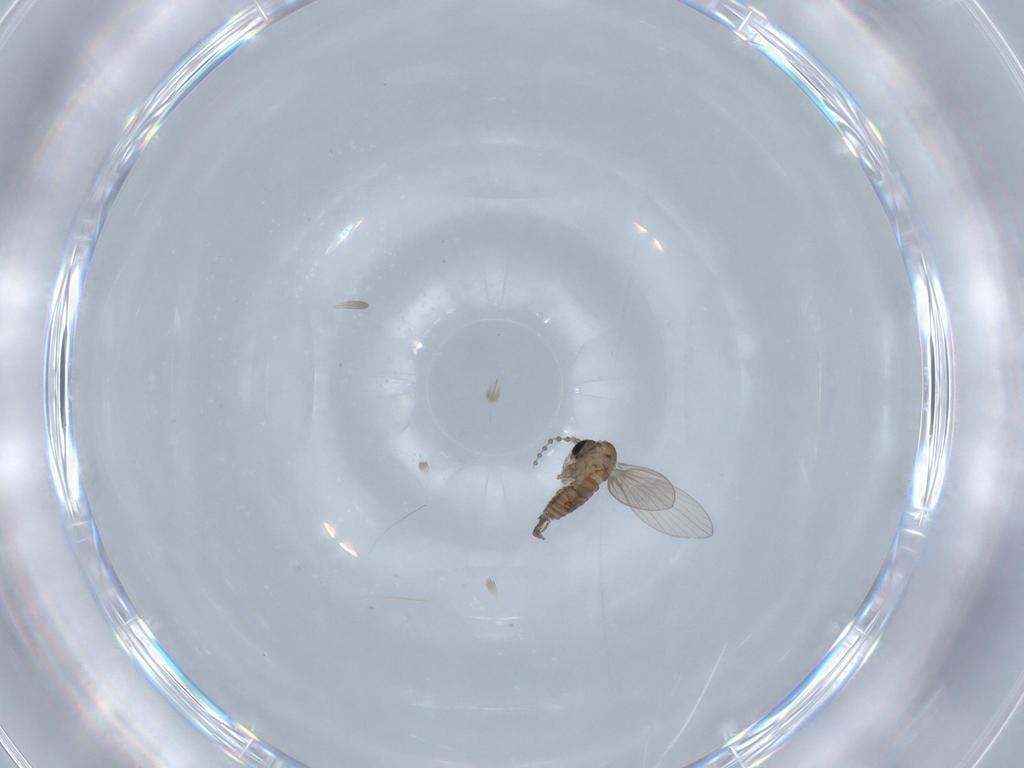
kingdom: Animalia
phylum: Arthropoda
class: Insecta
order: Diptera
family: Psychodidae
